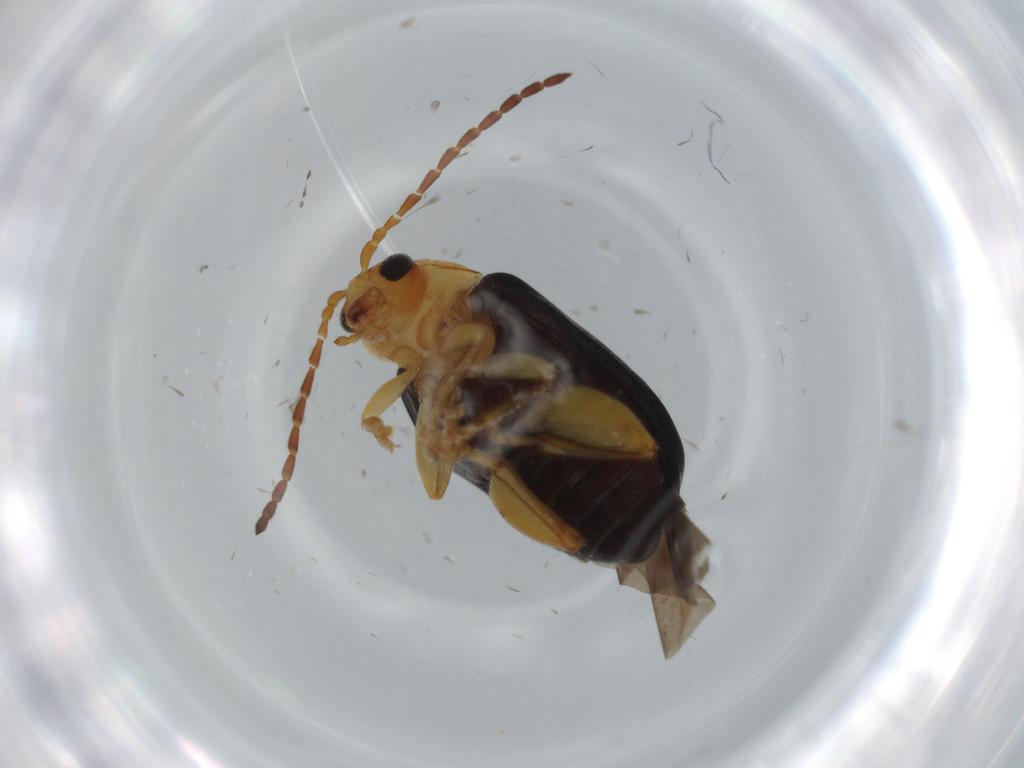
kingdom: Animalia
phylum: Arthropoda
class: Insecta
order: Coleoptera
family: Chrysomelidae
